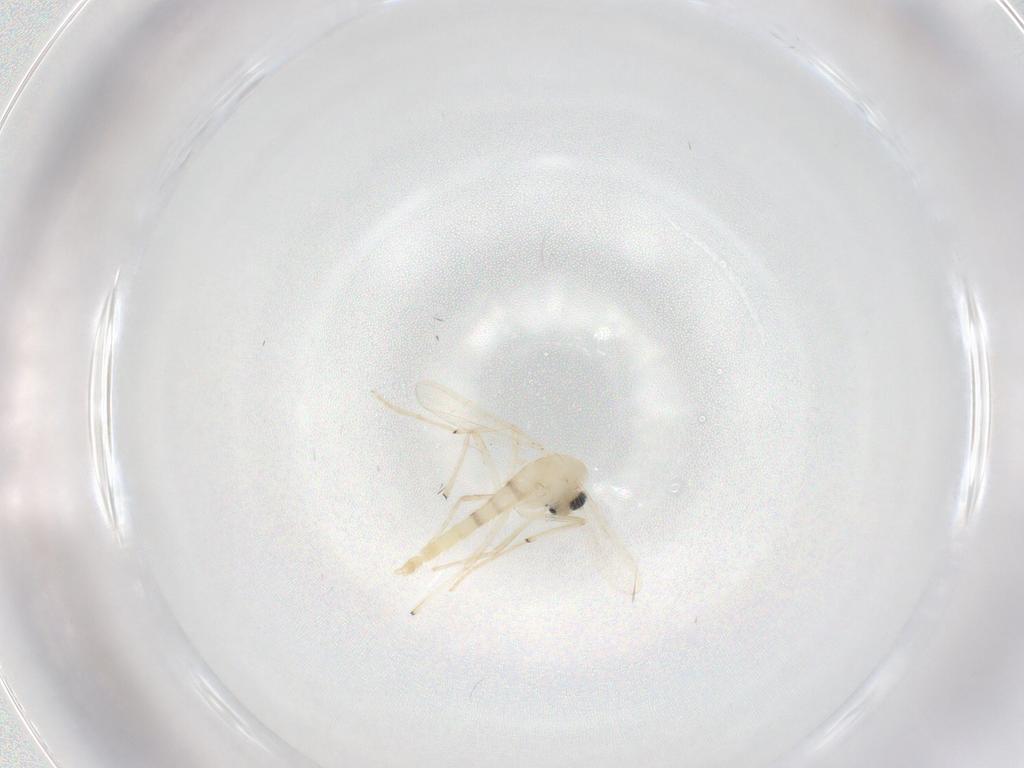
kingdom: Animalia
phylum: Arthropoda
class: Insecta
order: Diptera
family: Chironomidae
